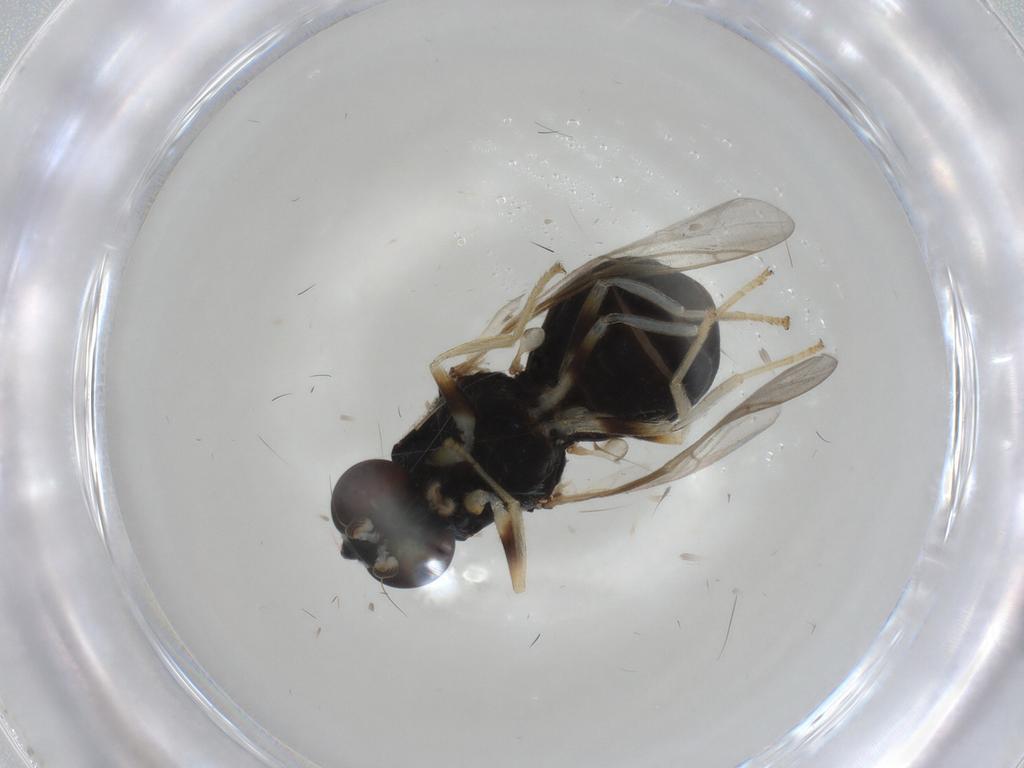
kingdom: Animalia
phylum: Arthropoda
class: Insecta
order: Diptera
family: Stratiomyidae
